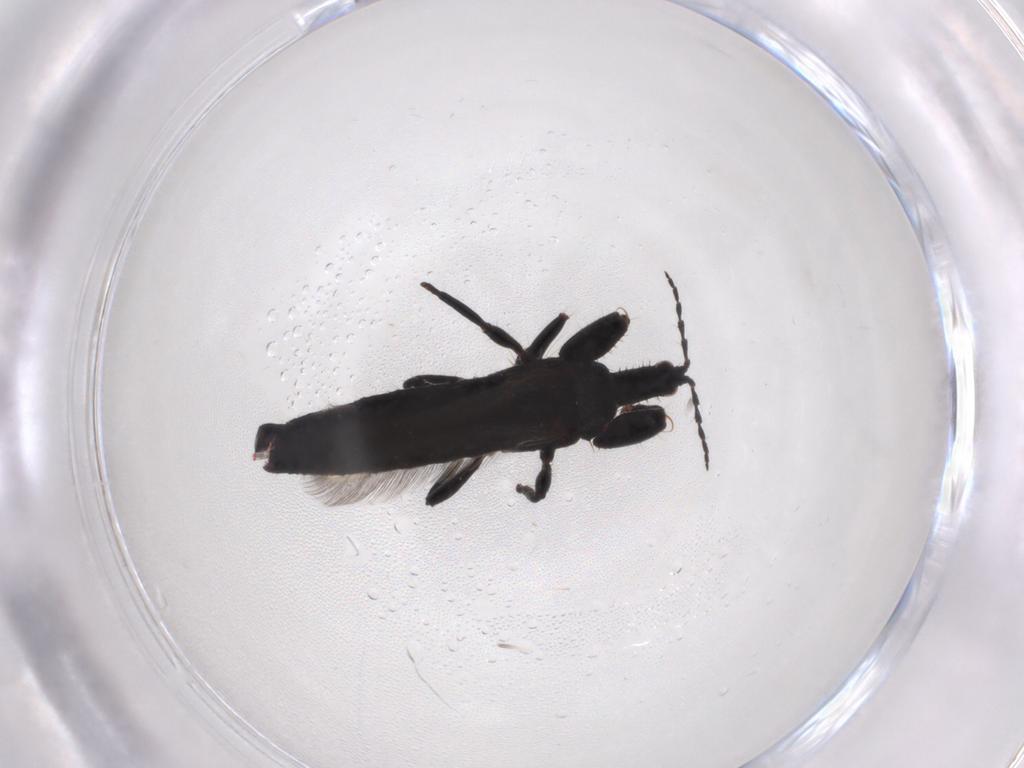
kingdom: Animalia
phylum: Arthropoda
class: Insecta
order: Thysanoptera
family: Phlaeothripidae
